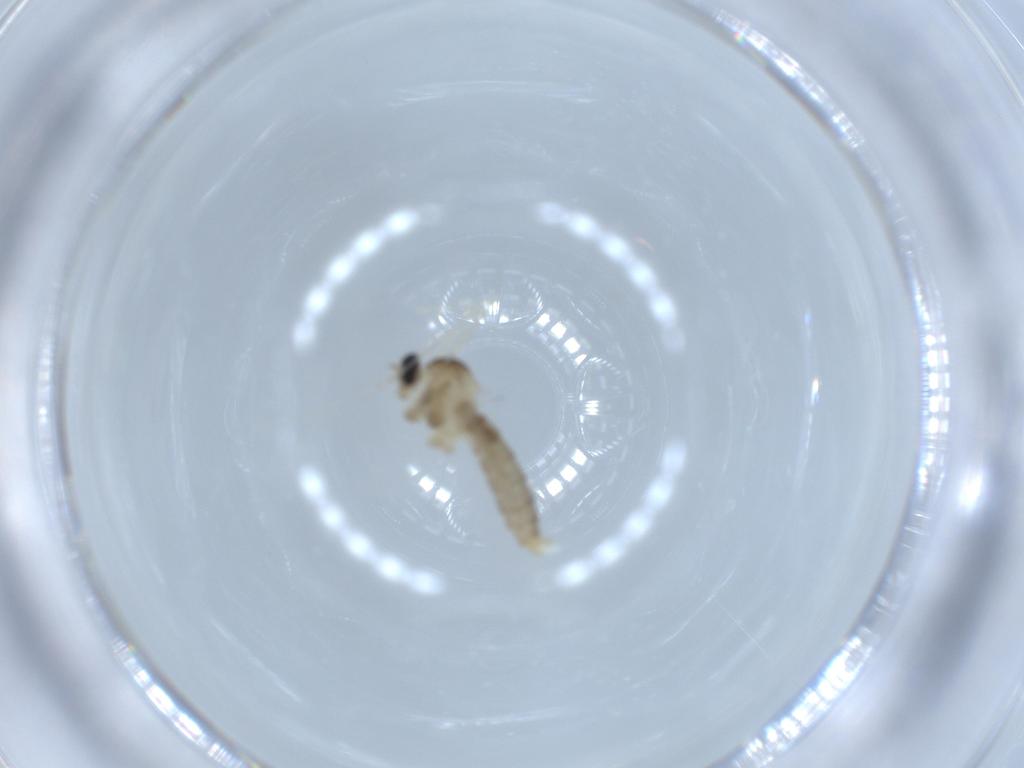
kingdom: Animalia
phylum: Arthropoda
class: Insecta
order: Diptera
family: Cecidomyiidae
